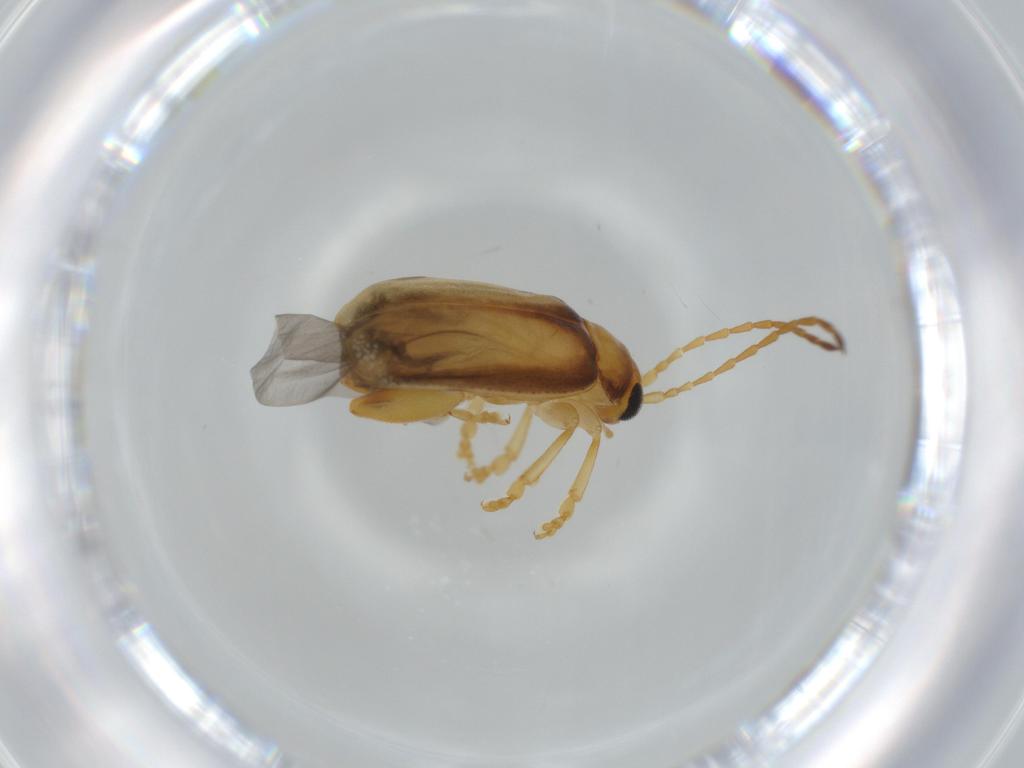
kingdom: Animalia
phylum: Arthropoda
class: Insecta
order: Coleoptera
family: Chrysomelidae
